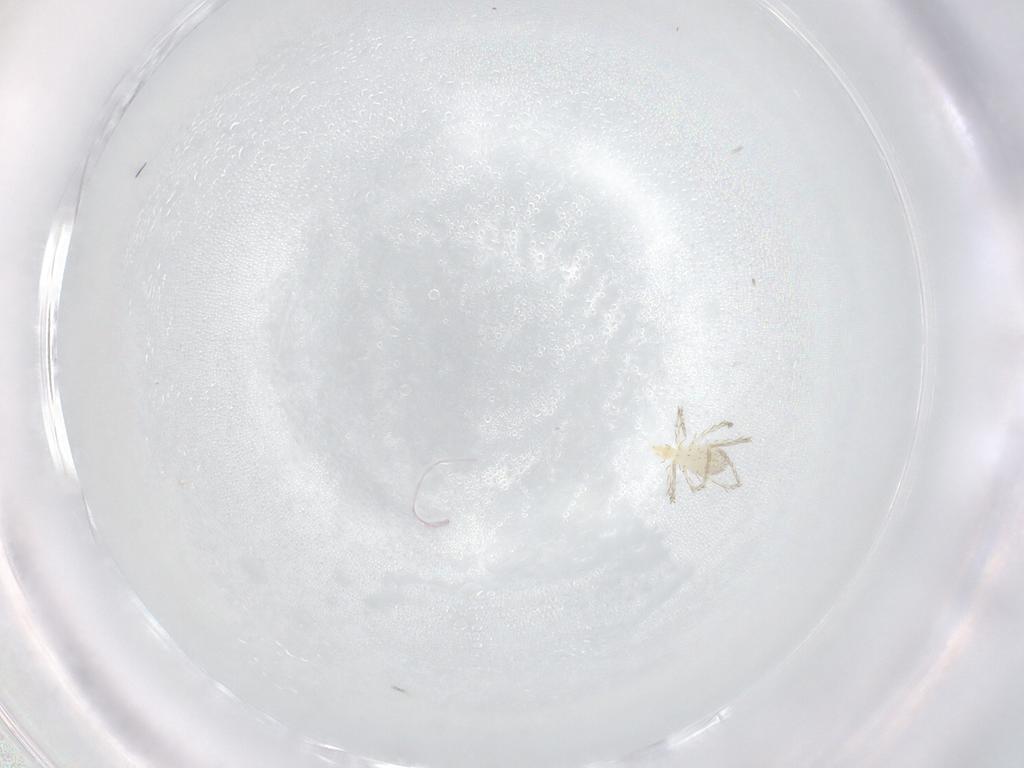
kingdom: Animalia
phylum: Arthropoda
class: Arachnida
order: Trombidiformes
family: Erythraeidae
